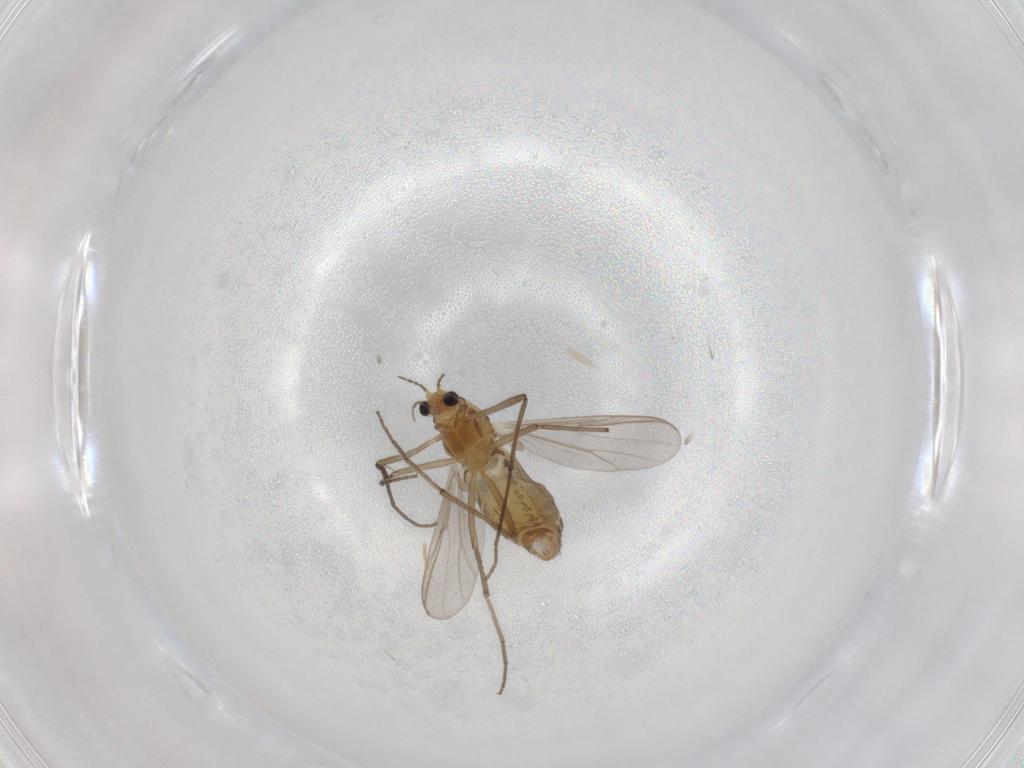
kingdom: Animalia
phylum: Arthropoda
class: Insecta
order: Diptera
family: Chironomidae
